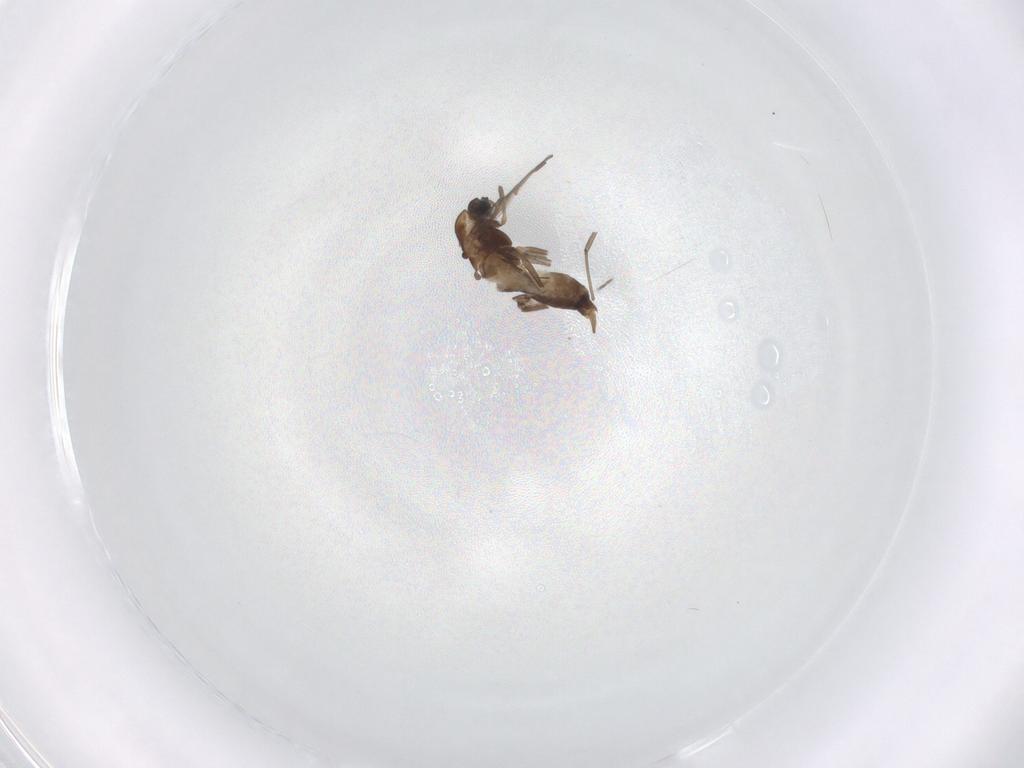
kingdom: Animalia
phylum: Arthropoda
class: Insecta
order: Diptera
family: Chironomidae
